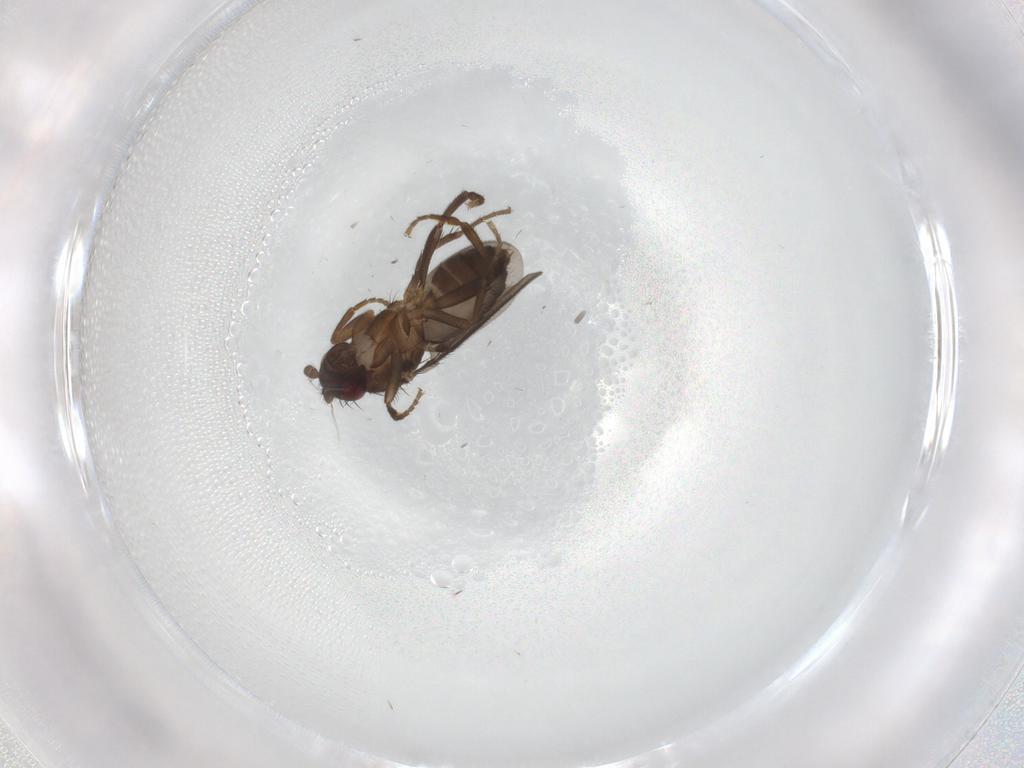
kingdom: Animalia
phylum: Arthropoda
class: Insecta
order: Diptera
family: Sphaeroceridae
